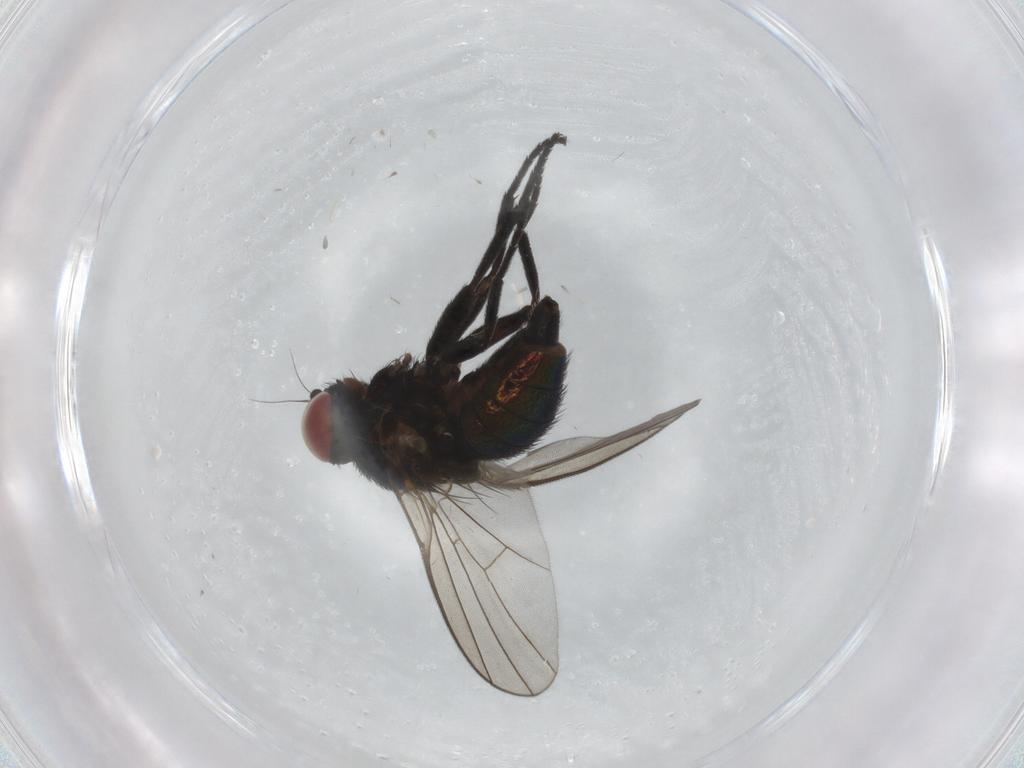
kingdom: Animalia
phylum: Arthropoda
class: Insecta
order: Diptera
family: Agromyzidae
